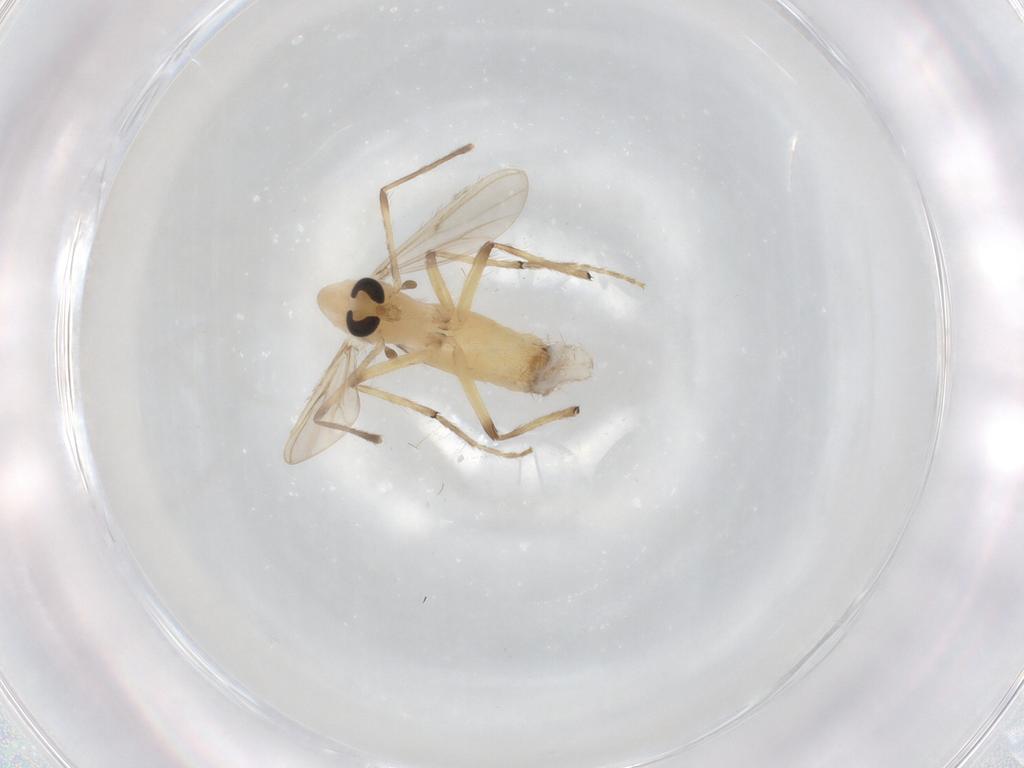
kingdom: Animalia
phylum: Arthropoda
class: Insecta
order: Diptera
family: Chironomidae
